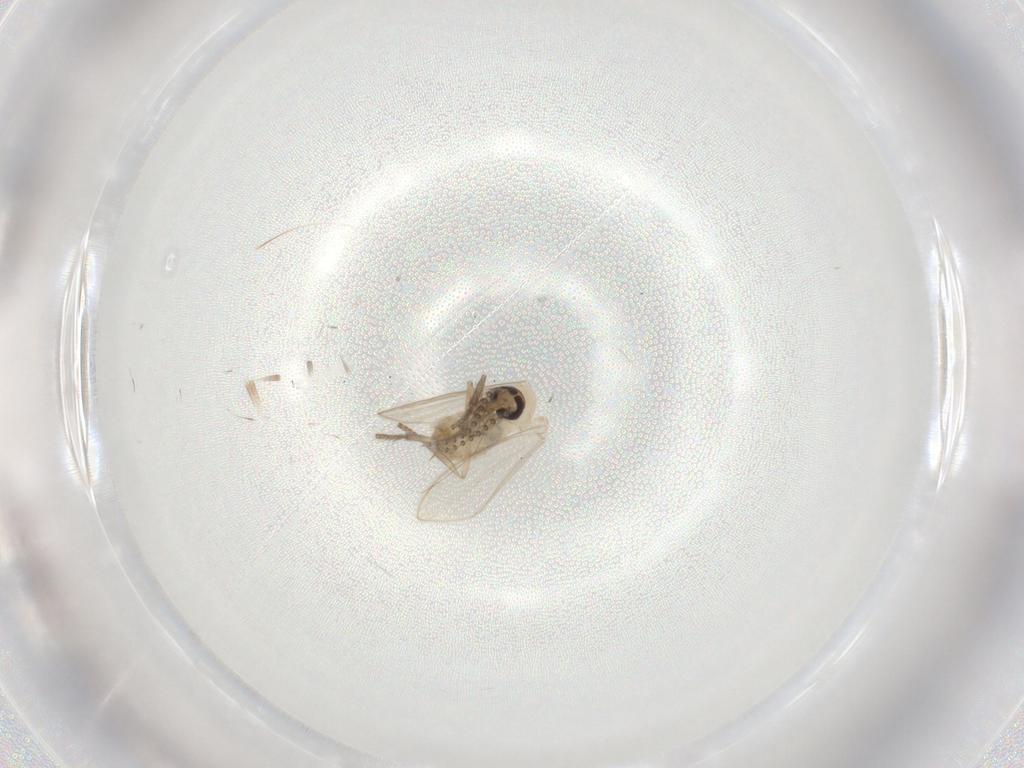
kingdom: Animalia
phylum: Arthropoda
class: Insecta
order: Diptera
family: Psychodidae
